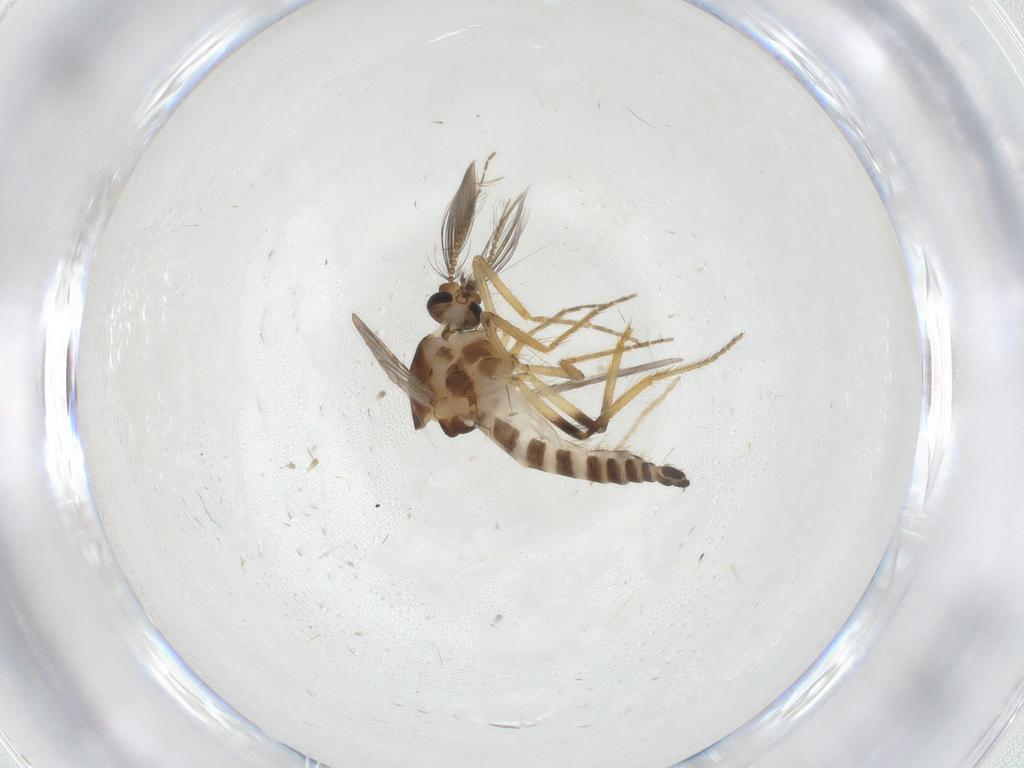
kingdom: Animalia
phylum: Arthropoda
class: Insecta
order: Diptera
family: Ceratopogonidae
